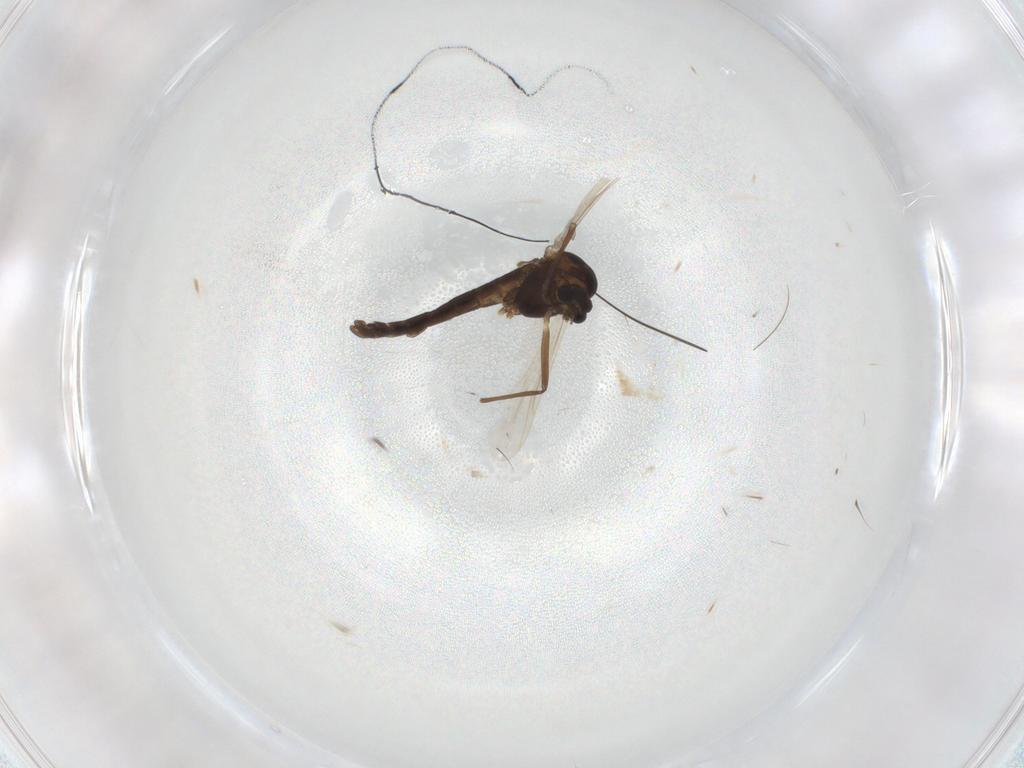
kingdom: Animalia
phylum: Arthropoda
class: Insecta
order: Diptera
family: Chironomidae
